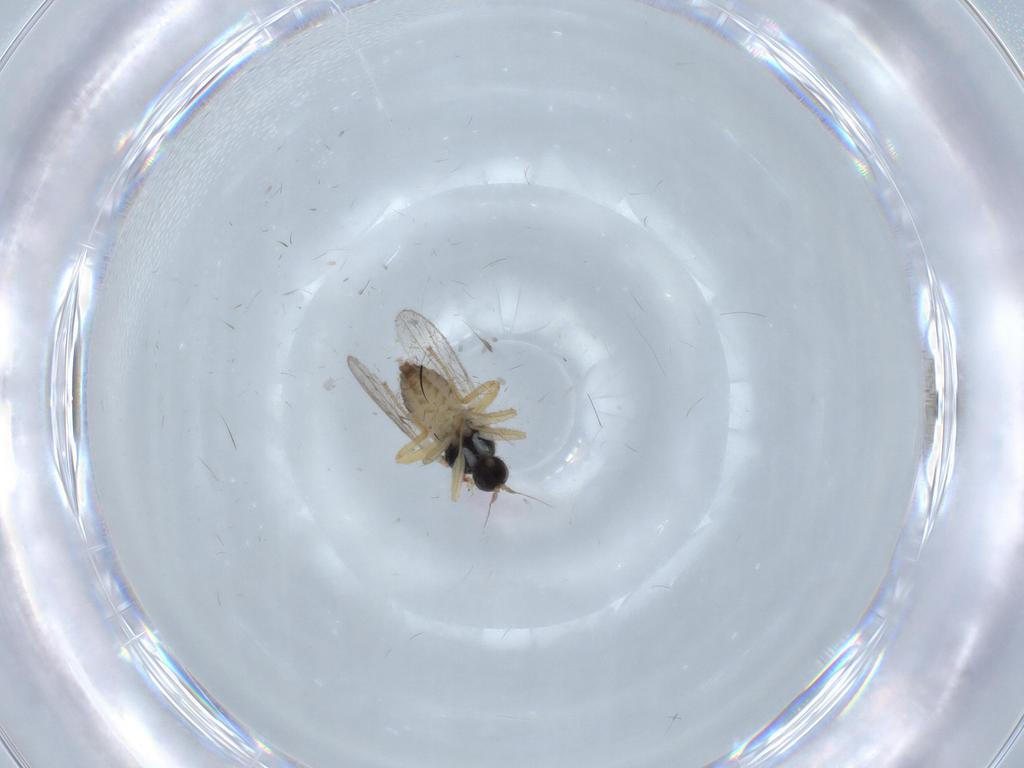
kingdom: Animalia
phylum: Arthropoda
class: Insecta
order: Diptera
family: Hybotidae
